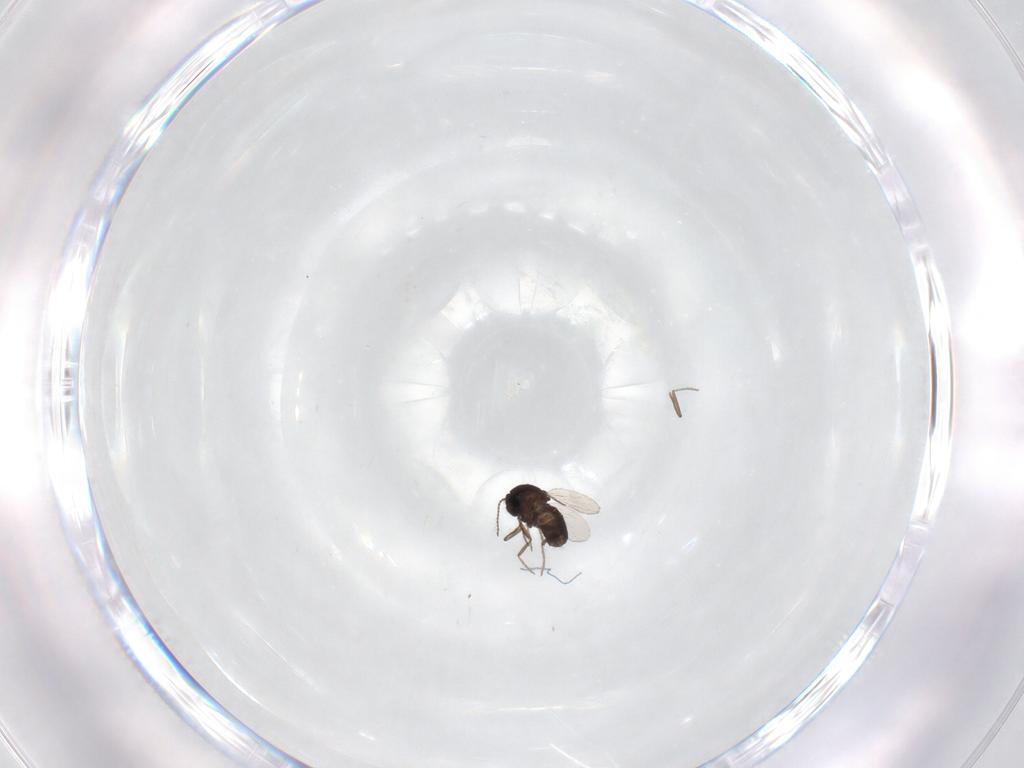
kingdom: Animalia
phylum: Arthropoda
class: Insecta
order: Diptera
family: Ceratopogonidae
